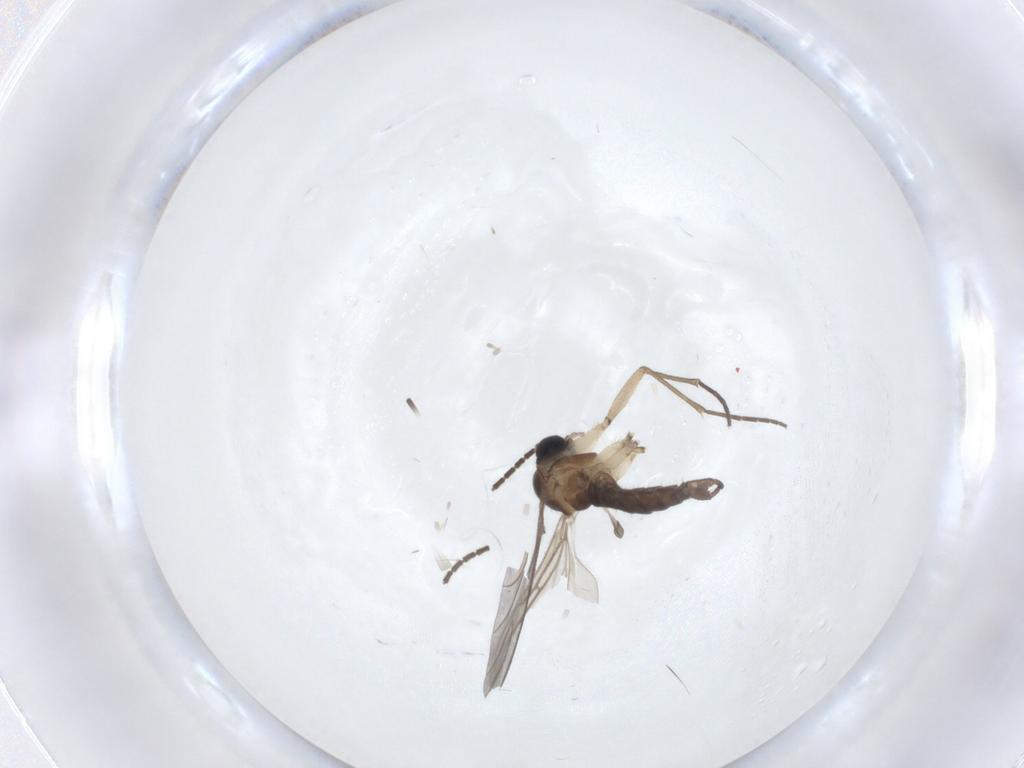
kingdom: Animalia
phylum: Arthropoda
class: Insecta
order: Diptera
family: Sciaridae
